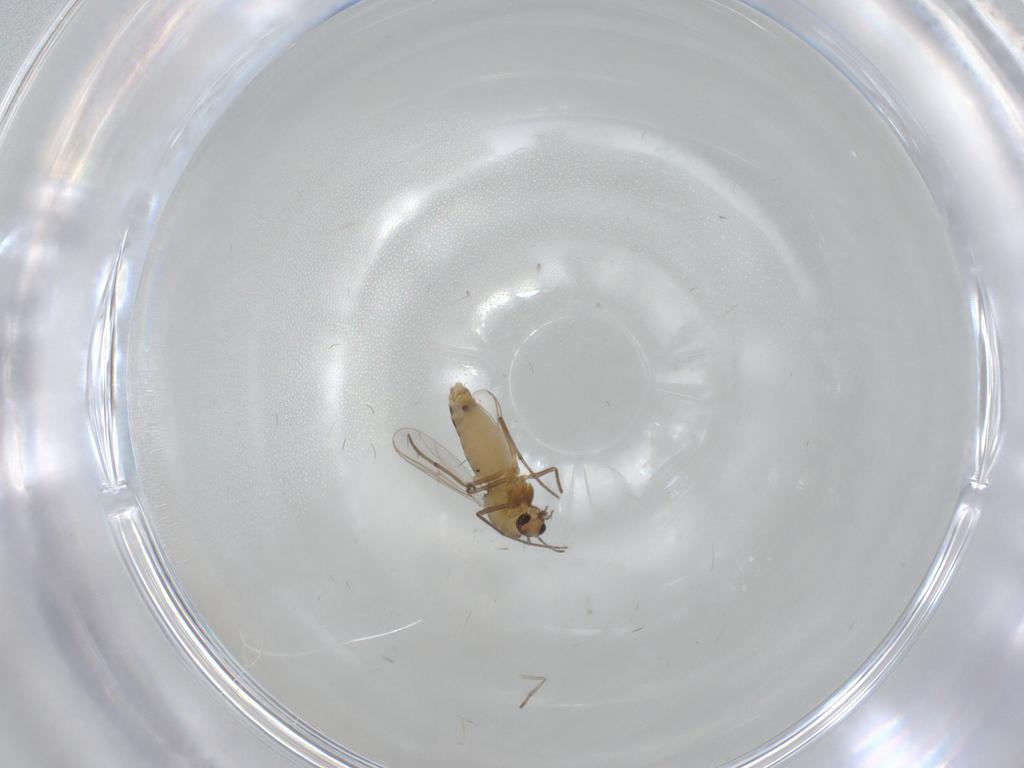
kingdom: Animalia
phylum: Arthropoda
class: Insecta
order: Diptera
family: Psychodidae
